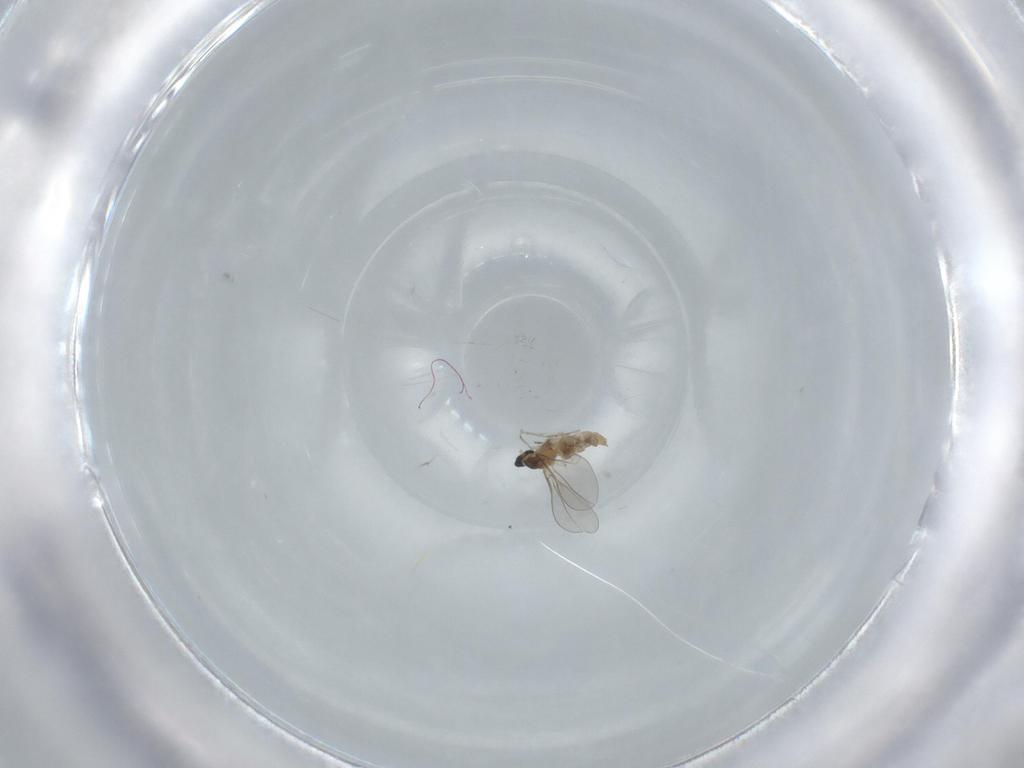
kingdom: Animalia
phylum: Arthropoda
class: Insecta
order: Diptera
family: Cecidomyiidae
